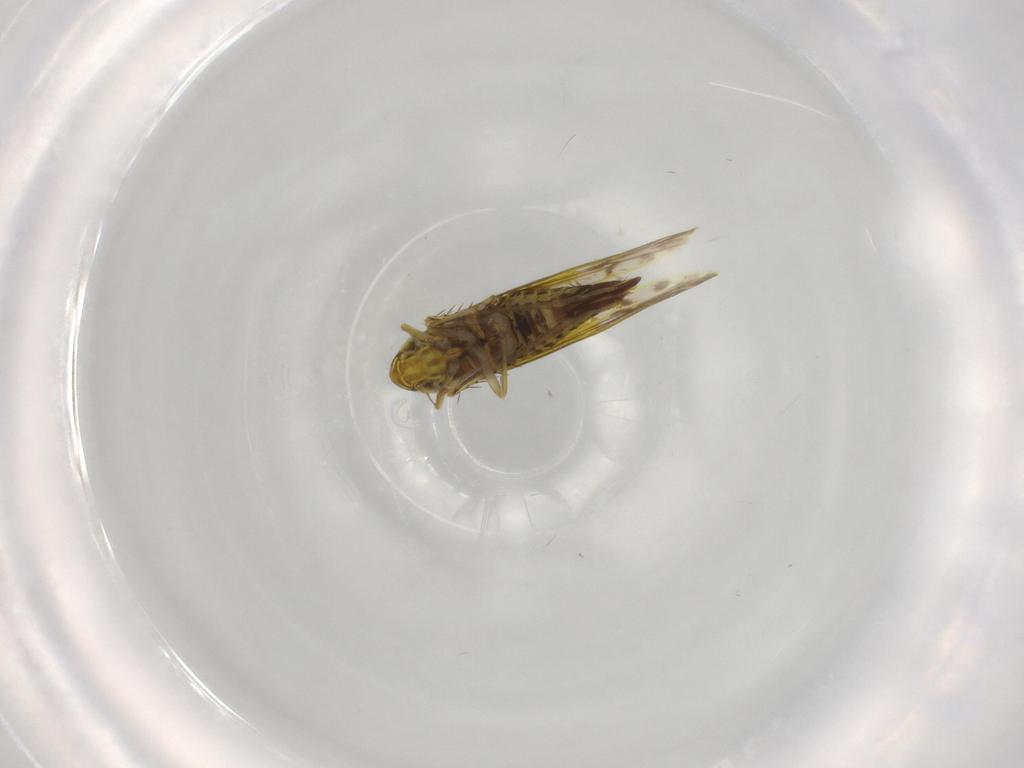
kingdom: Animalia
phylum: Arthropoda
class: Insecta
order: Hemiptera
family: Cicadellidae
